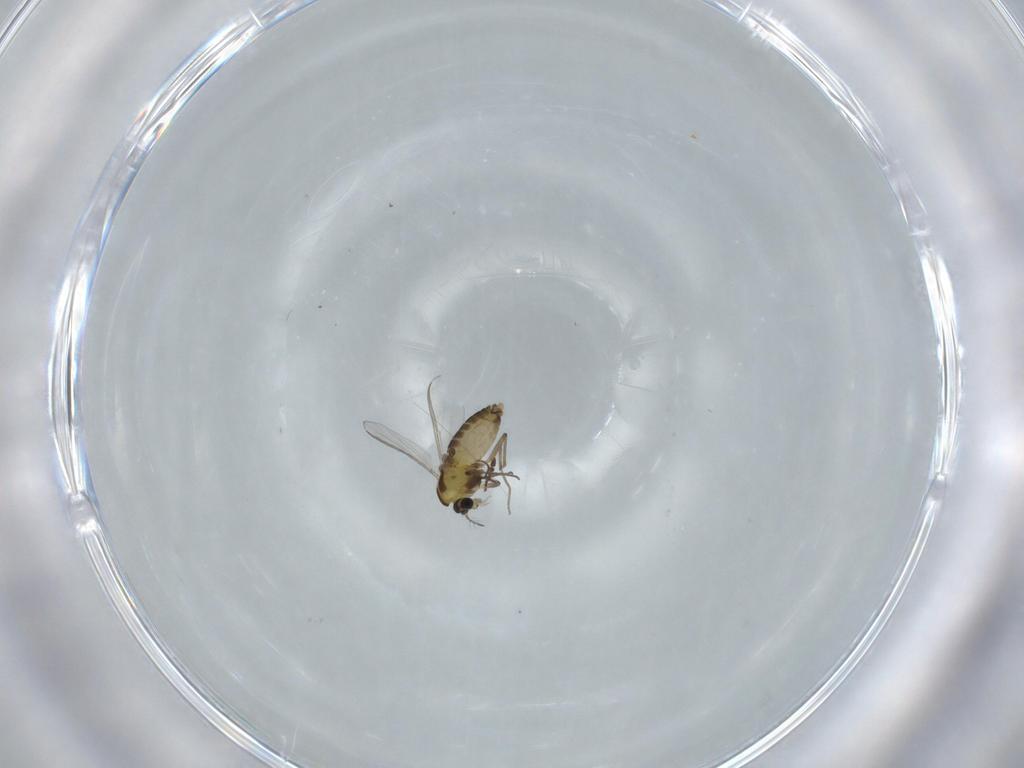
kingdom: Animalia
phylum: Arthropoda
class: Insecta
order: Diptera
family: Chironomidae
